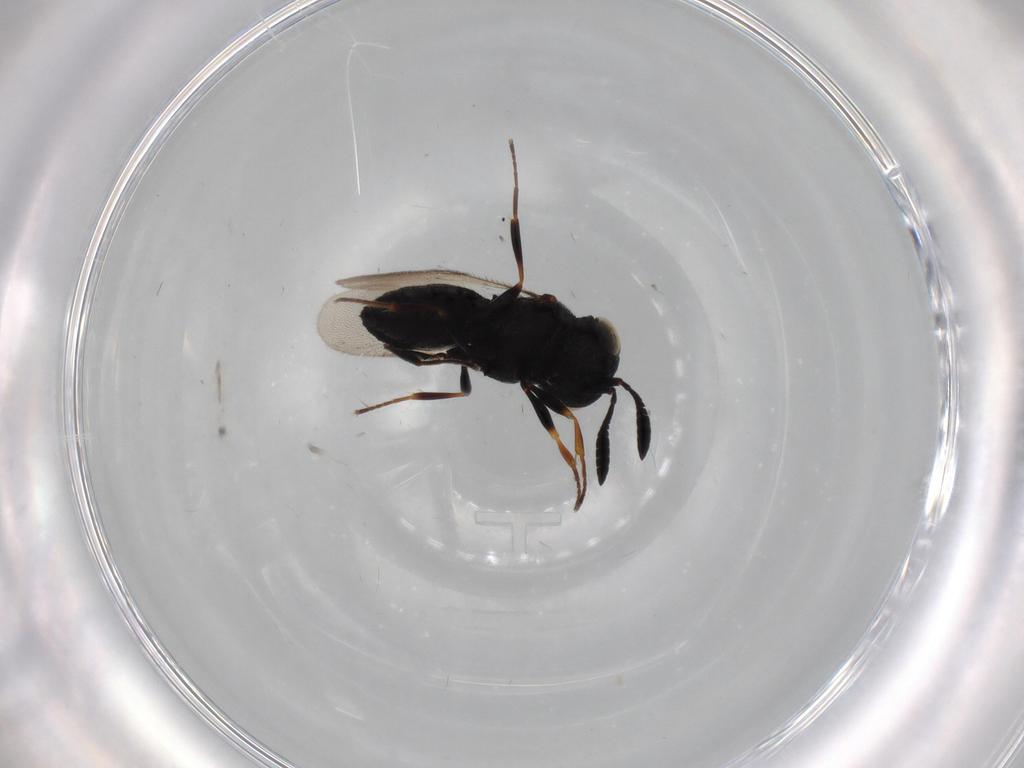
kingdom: Animalia
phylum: Arthropoda
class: Insecta
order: Hymenoptera
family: Scelionidae
